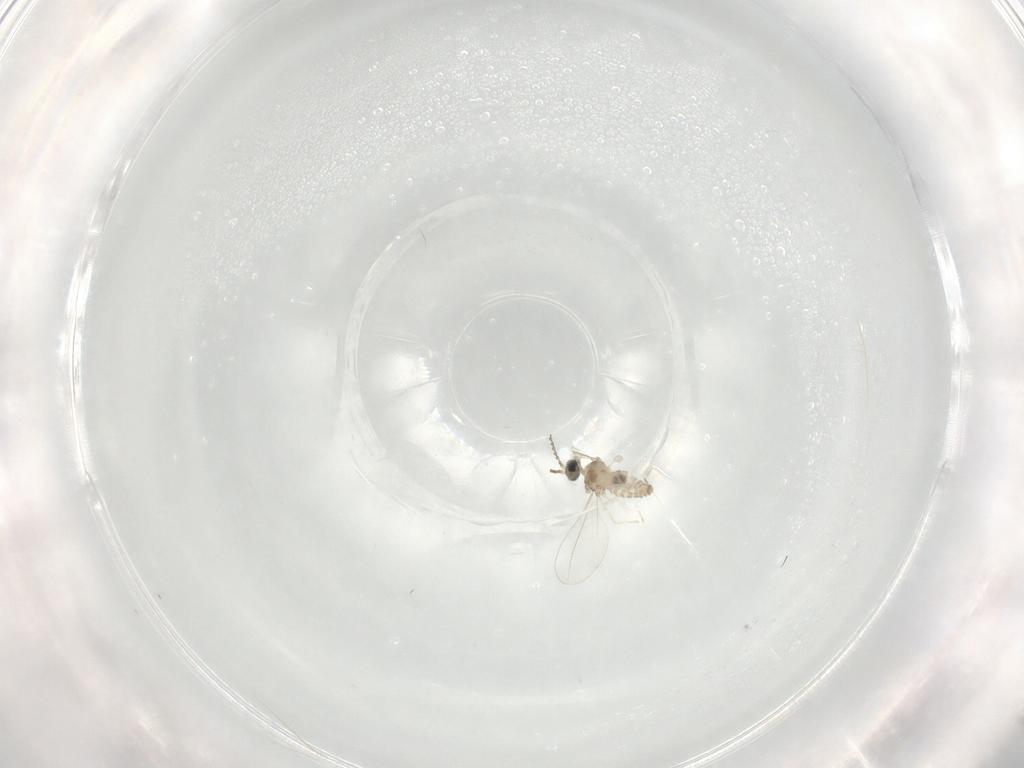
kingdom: Animalia
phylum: Arthropoda
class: Insecta
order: Diptera
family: Cecidomyiidae
